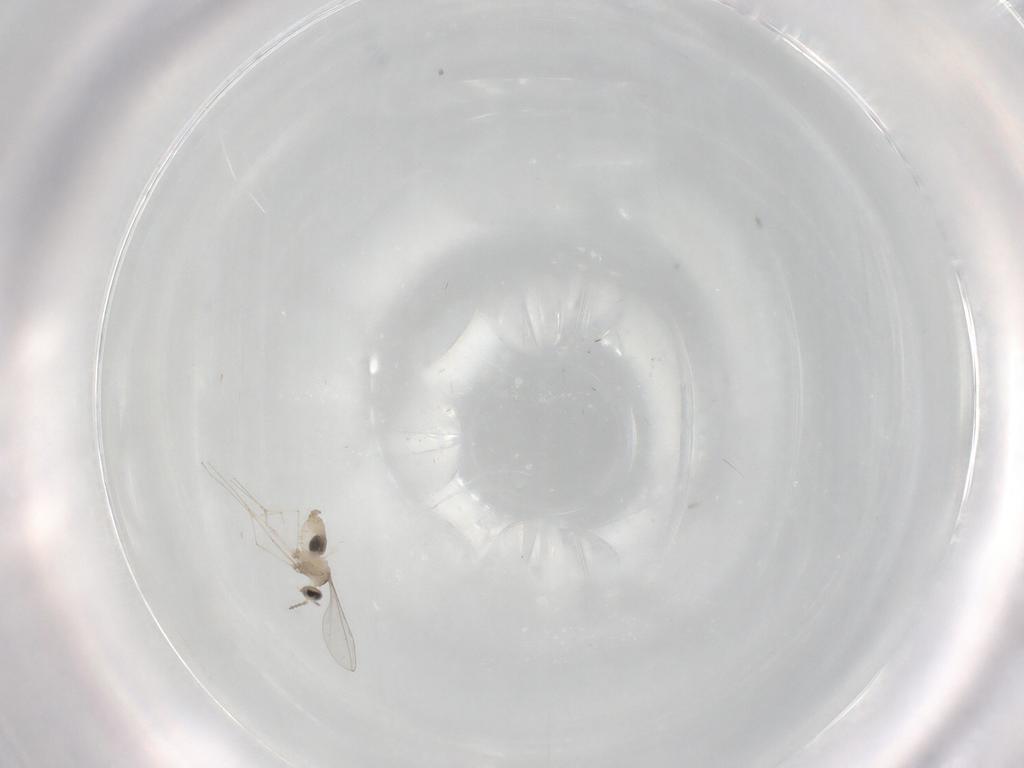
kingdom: Animalia
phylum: Arthropoda
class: Insecta
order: Diptera
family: Cecidomyiidae
